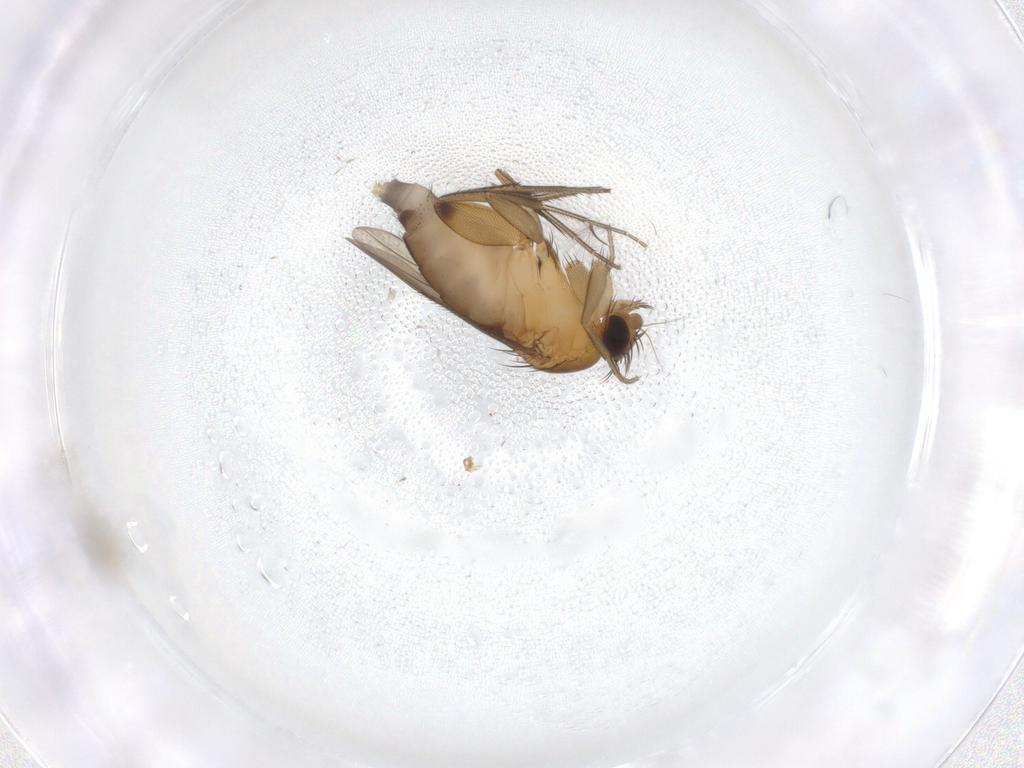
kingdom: Animalia
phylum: Arthropoda
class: Insecta
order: Diptera
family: Phoridae
